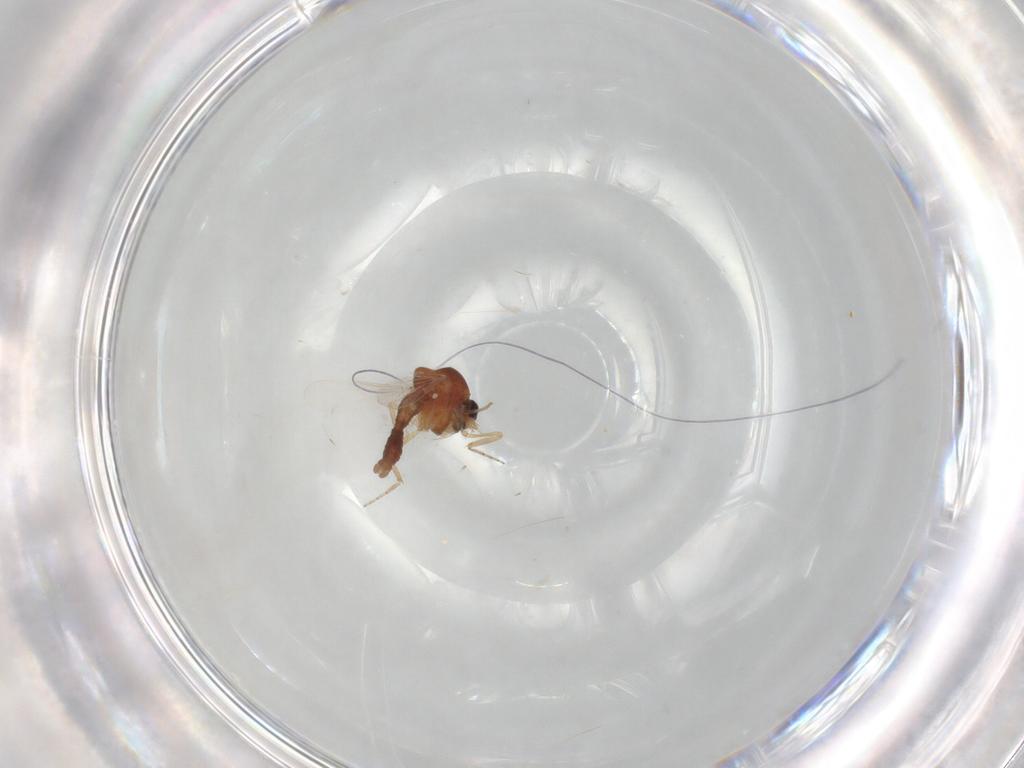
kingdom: Animalia
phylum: Arthropoda
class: Insecta
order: Diptera
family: Ceratopogonidae
